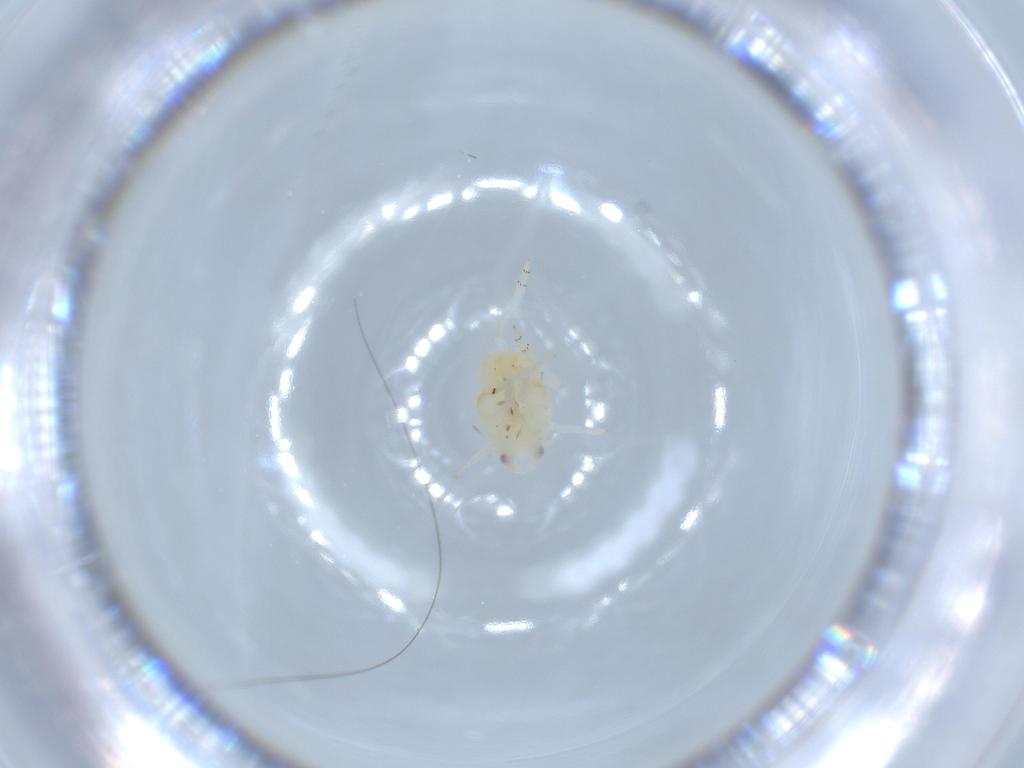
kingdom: Animalia
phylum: Arthropoda
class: Insecta
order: Hemiptera
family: Flatidae
